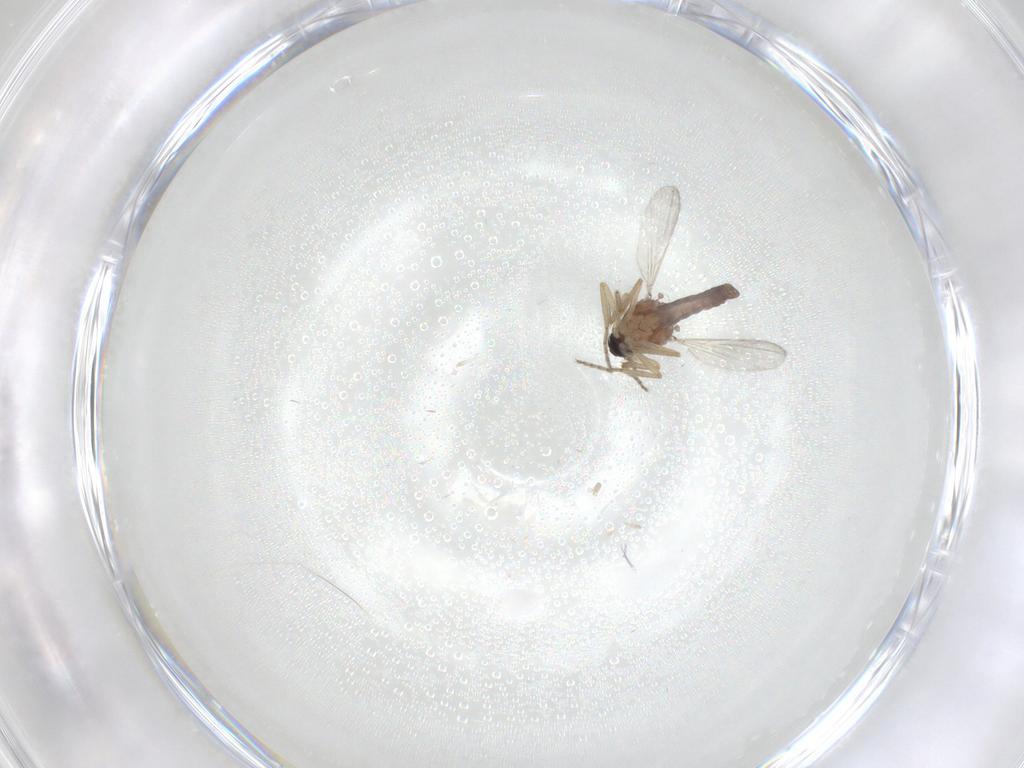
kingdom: Animalia
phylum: Arthropoda
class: Insecta
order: Diptera
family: Ceratopogonidae
